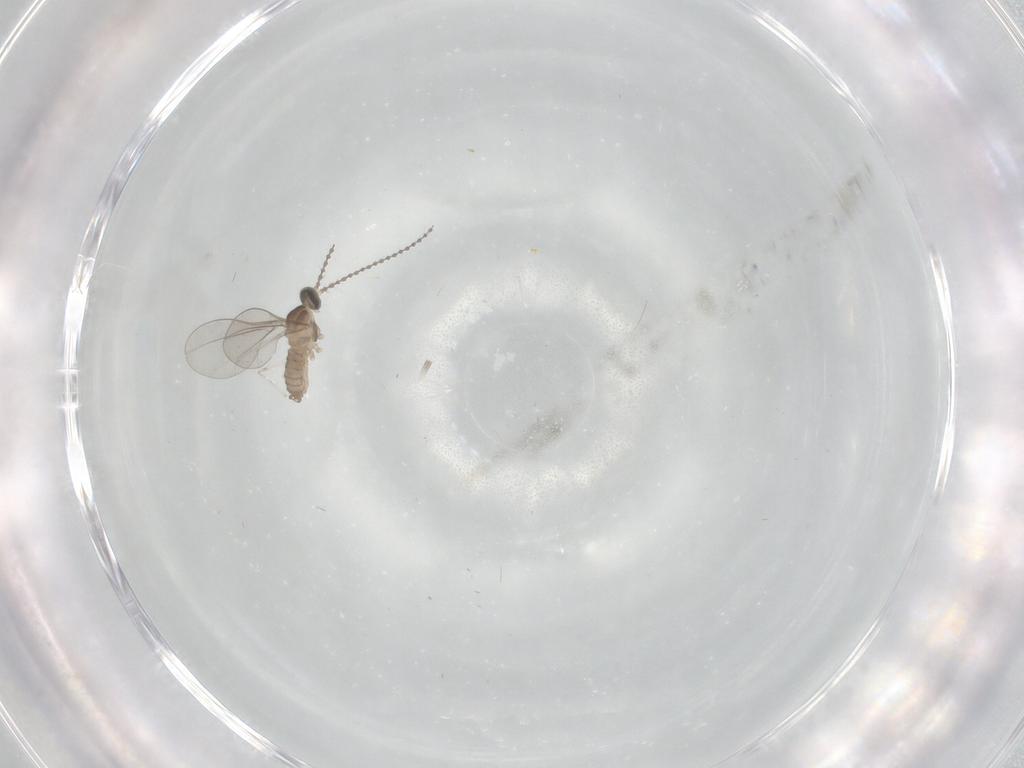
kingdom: Animalia
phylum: Arthropoda
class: Insecta
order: Diptera
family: Cecidomyiidae
